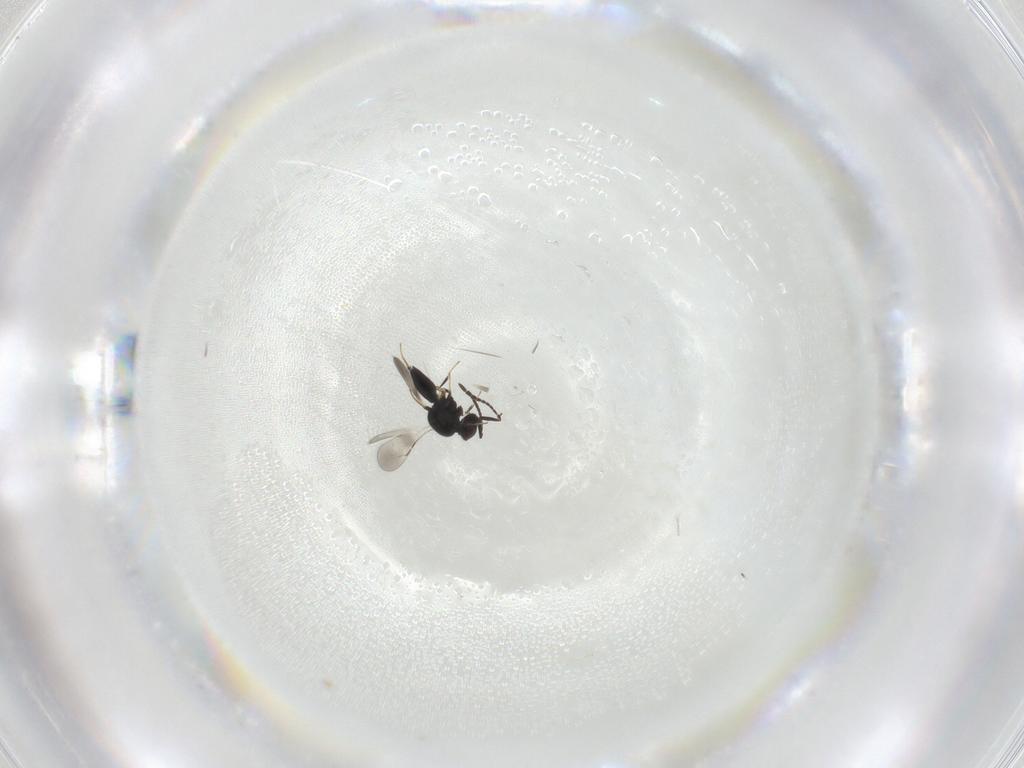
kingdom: Animalia
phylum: Arthropoda
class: Insecta
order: Hymenoptera
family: Ceraphronidae
